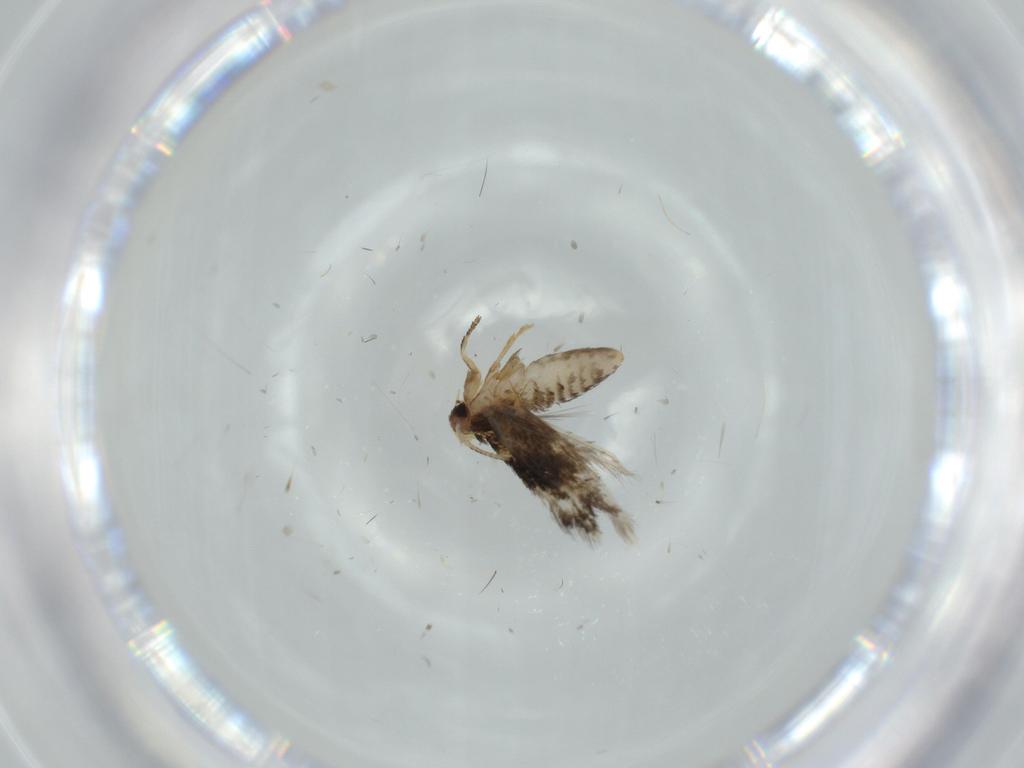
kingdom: Animalia
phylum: Arthropoda
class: Insecta
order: Lepidoptera
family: Nepticulidae
